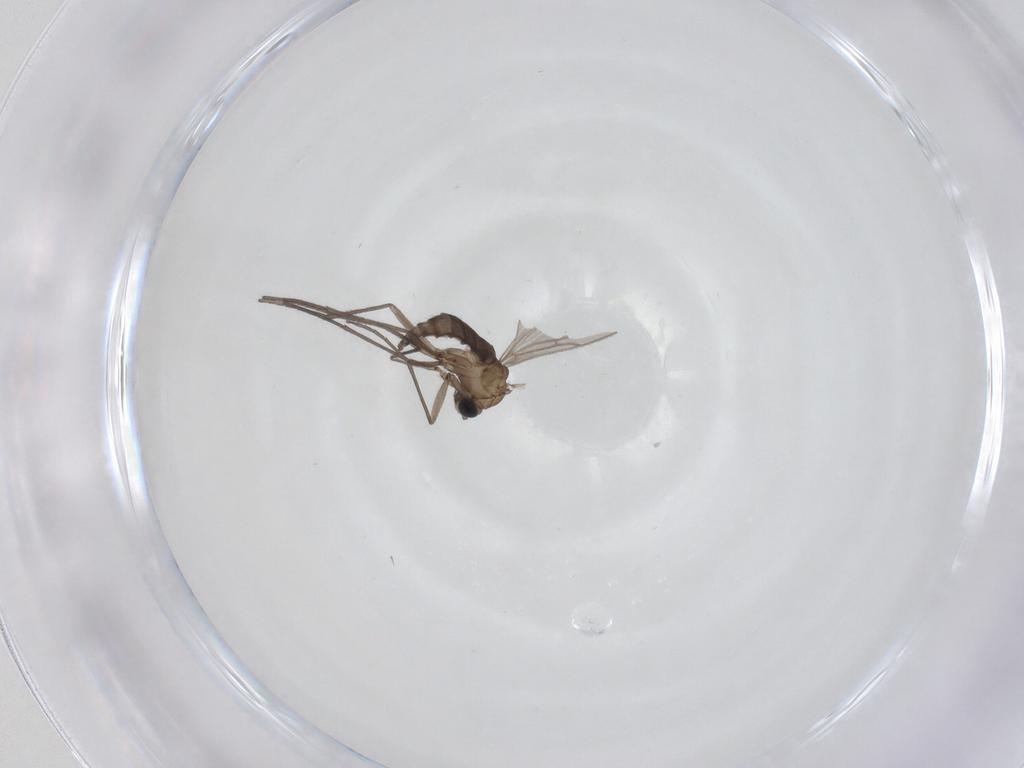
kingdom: Animalia
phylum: Arthropoda
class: Insecta
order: Diptera
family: Sciaridae
